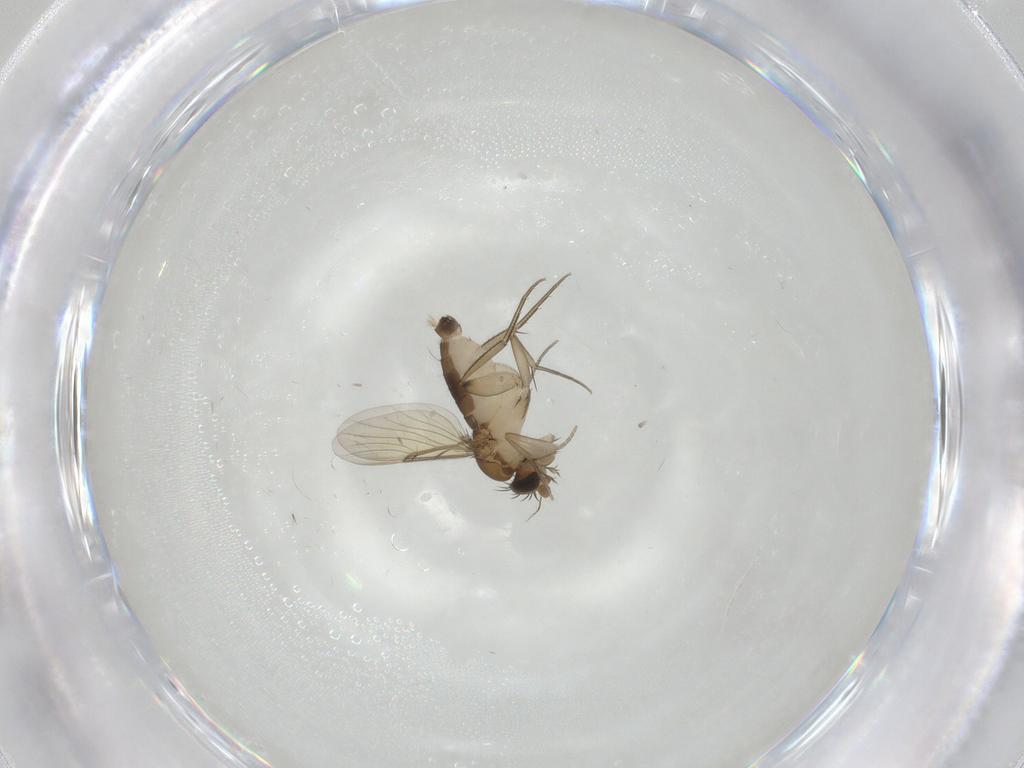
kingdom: Animalia
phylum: Arthropoda
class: Insecta
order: Diptera
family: Phoridae
